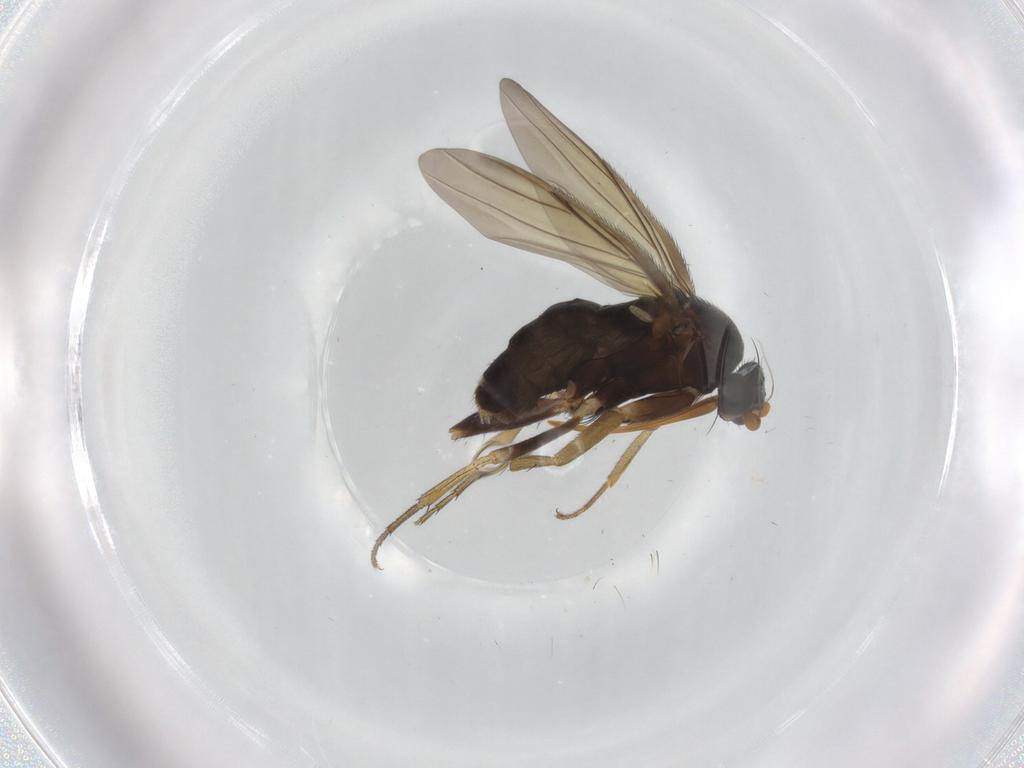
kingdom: Animalia
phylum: Arthropoda
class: Insecta
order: Diptera
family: Phoridae
